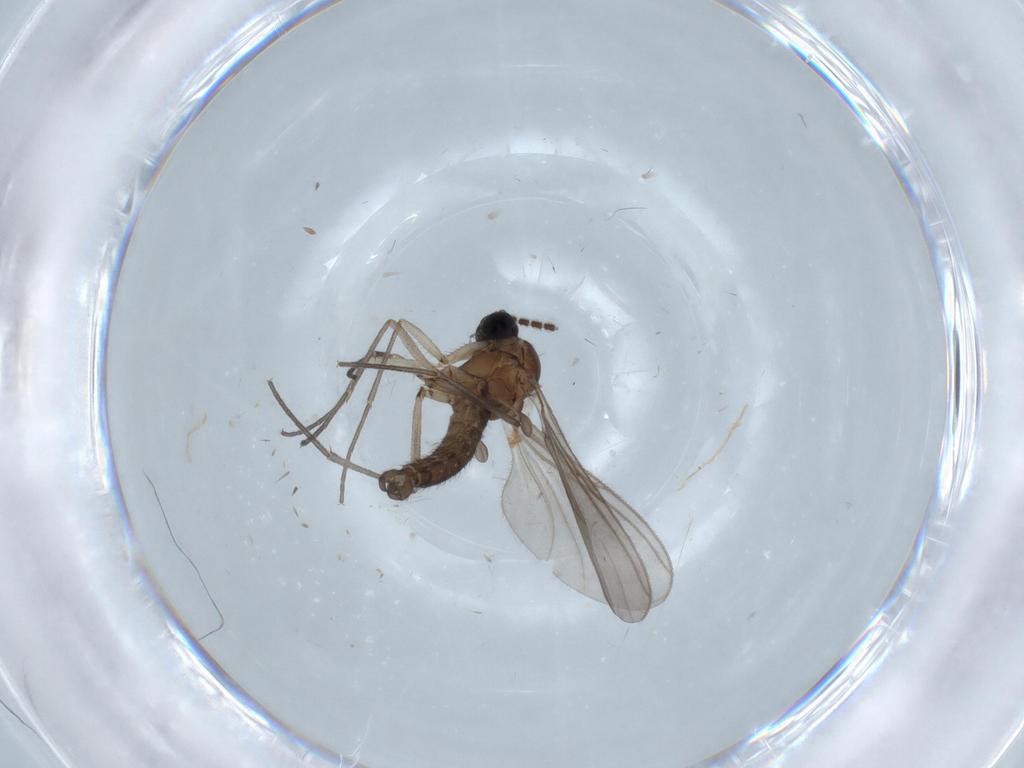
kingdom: Animalia
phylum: Arthropoda
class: Insecta
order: Diptera
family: Sciaridae
